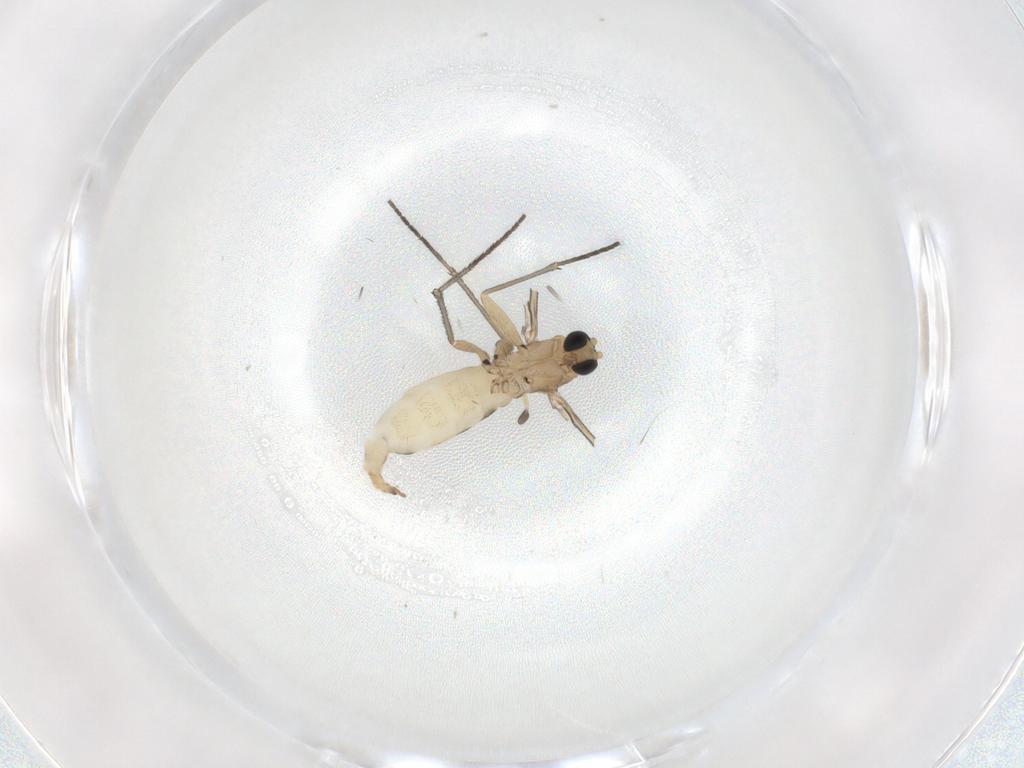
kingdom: Animalia
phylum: Arthropoda
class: Insecta
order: Diptera
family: Sciaridae
